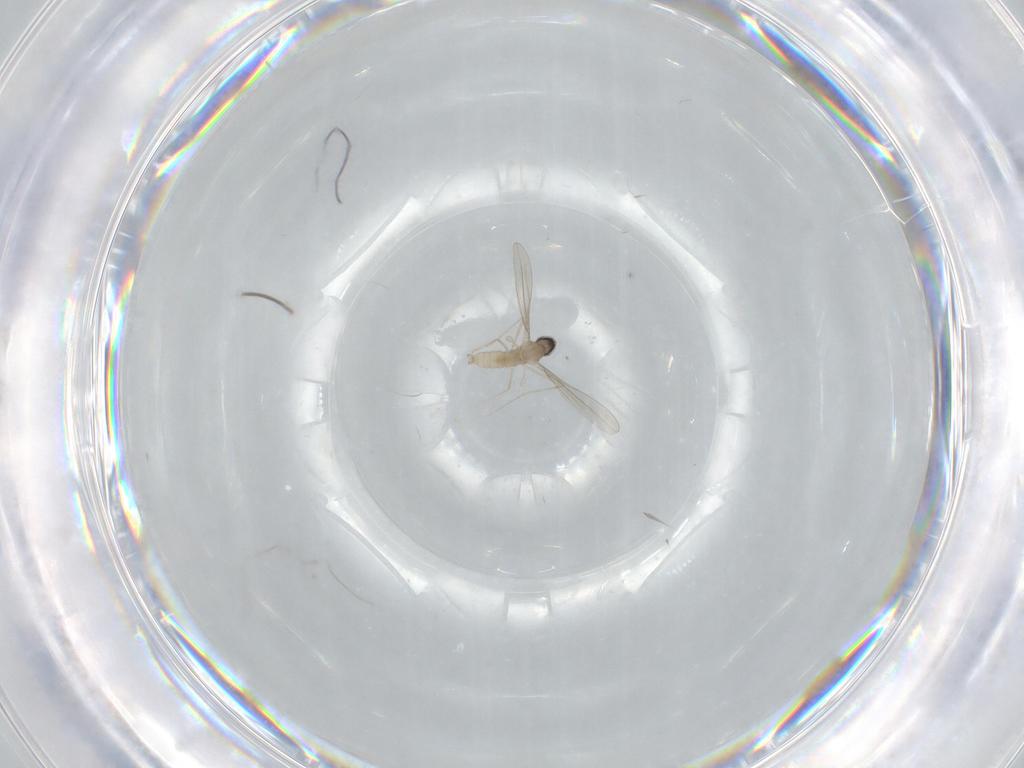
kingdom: Animalia
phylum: Arthropoda
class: Insecta
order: Diptera
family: Cecidomyiidae
